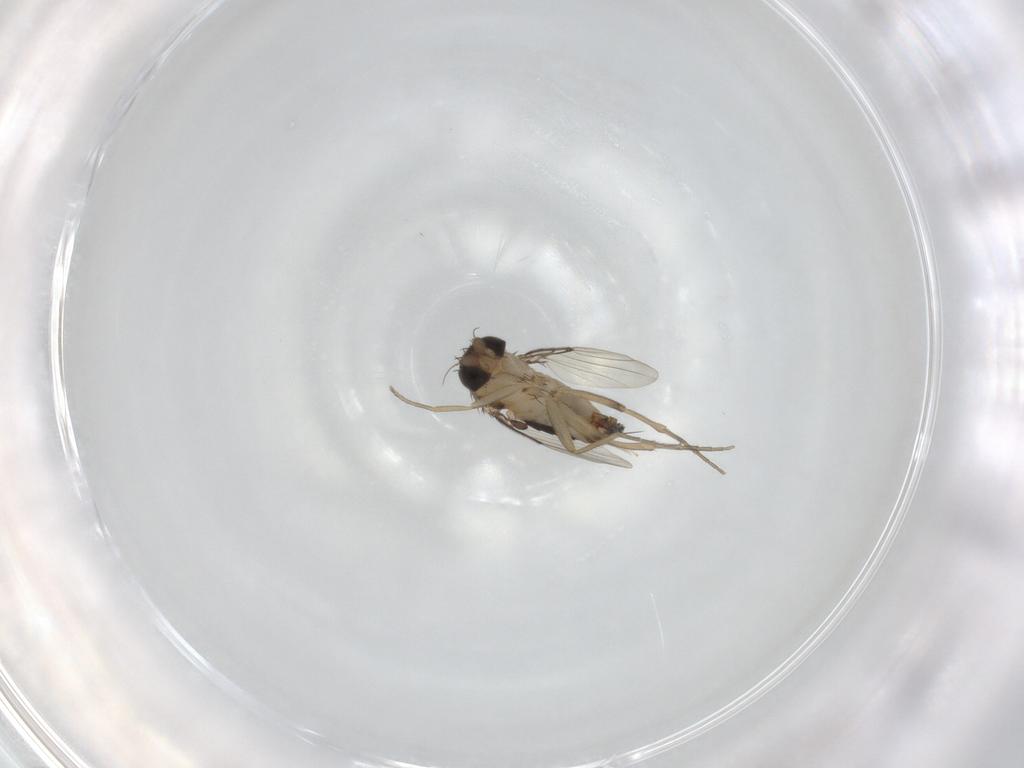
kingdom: Animalia
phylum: Arthropoda
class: Insecta
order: Diptera
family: Phoridae
